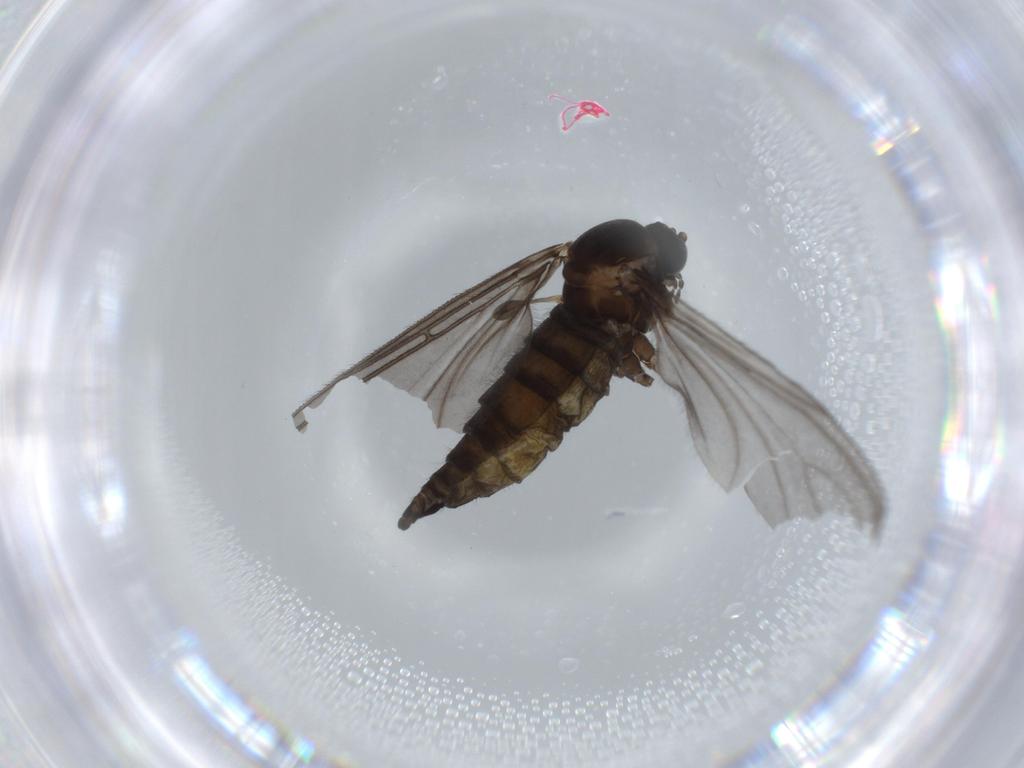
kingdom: Animalia
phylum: Arthropoda
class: Insecta
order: Diptera
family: Sciaridae
